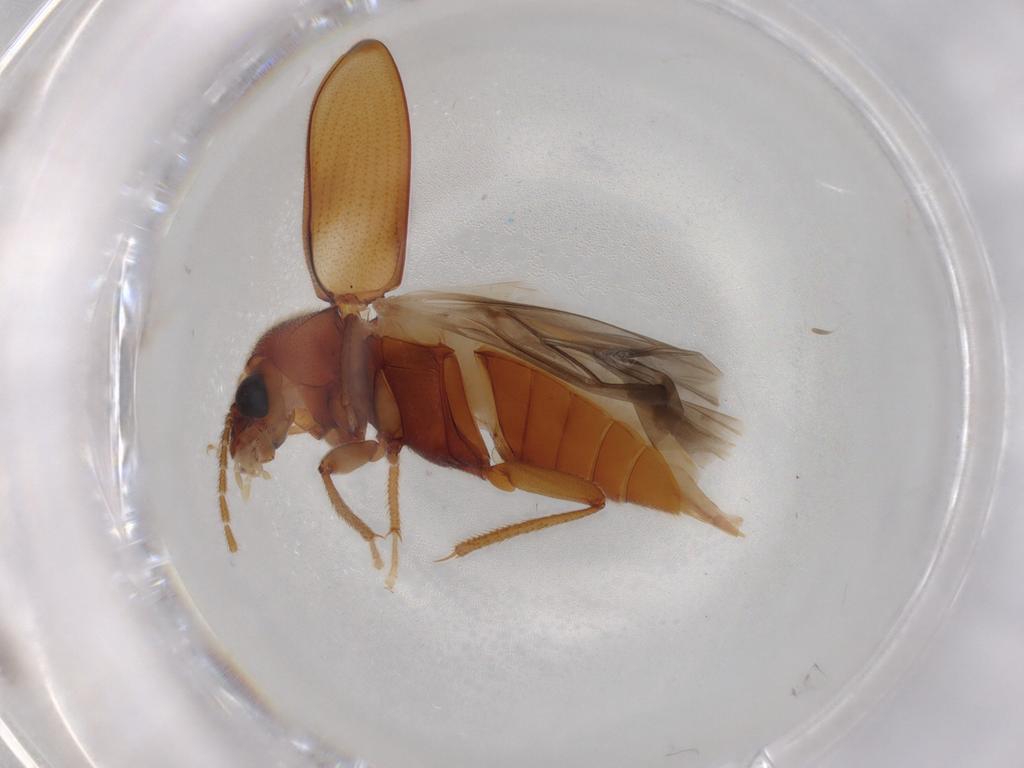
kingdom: Animalia
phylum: Arthropoda
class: Insecta
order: Coleoptera
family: Ptilodactylidae
